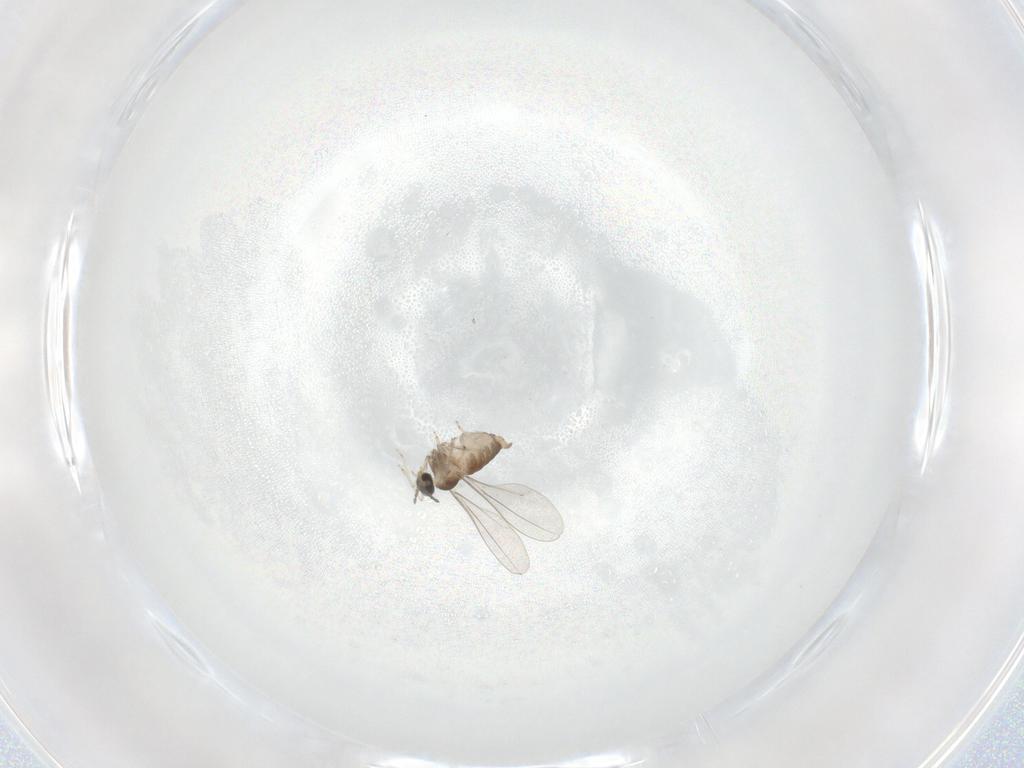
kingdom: Animalia
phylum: Arthropoda
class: Insecta
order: Diptera
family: Cecidomyiidae
